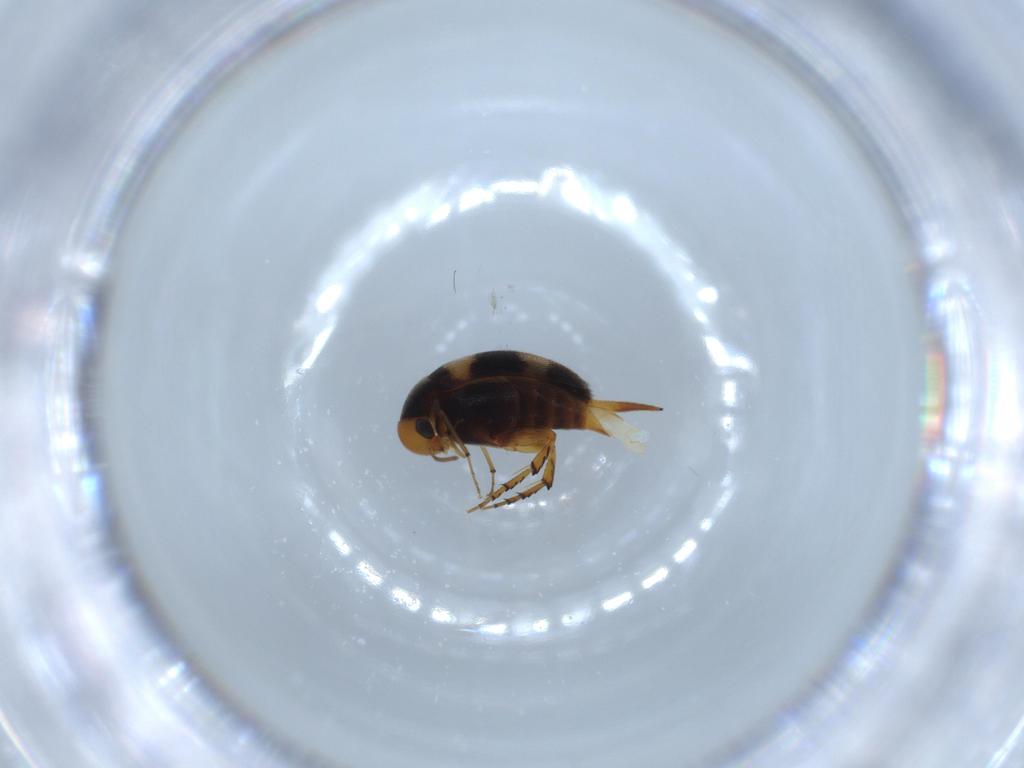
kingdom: Animalia
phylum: Arthropoda
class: Insecta
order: Coleoptera
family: Mordellidae
